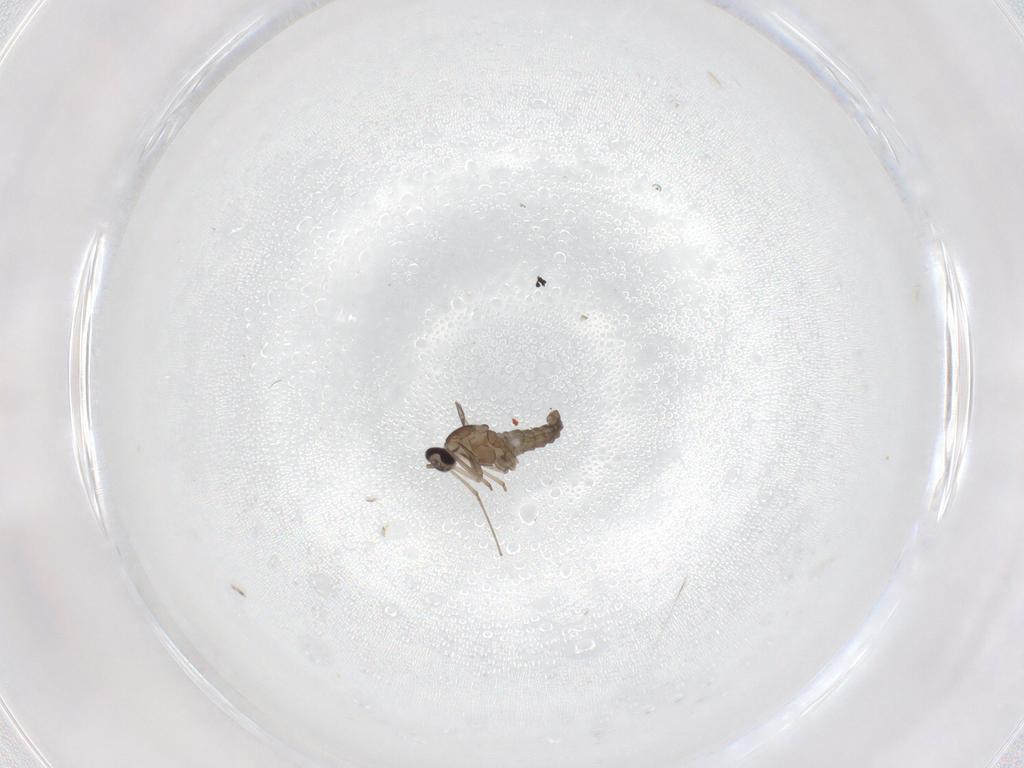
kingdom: Animalia
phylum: Arthropoda
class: Insecta
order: Diptera
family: Cecidomyiidae
